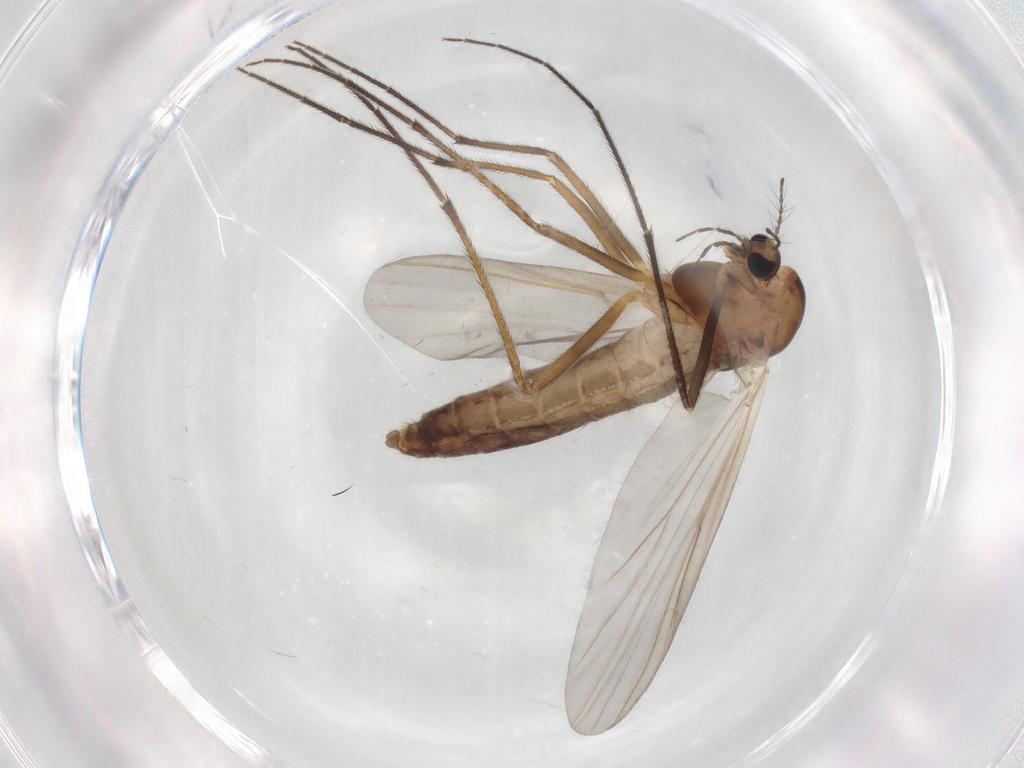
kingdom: Animalia
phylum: Arthropoda
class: Insecta
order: Diptera
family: Chironomidae
